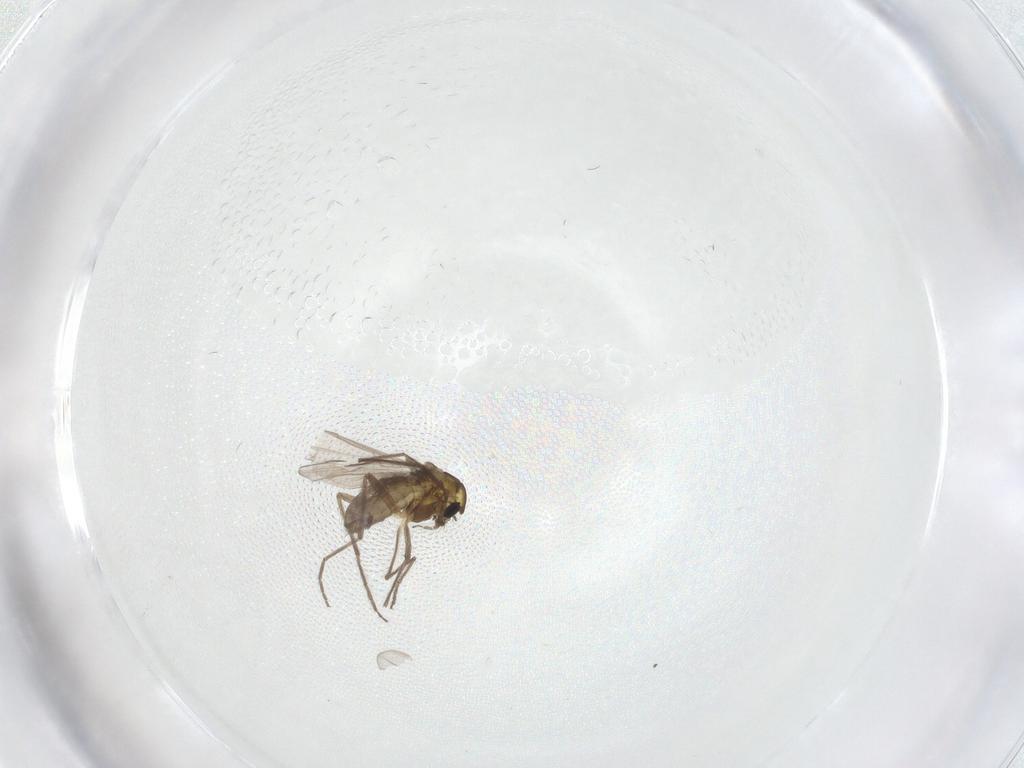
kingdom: Animalia
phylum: Arthropoda
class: Insecta
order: Diptera
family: Chironomidae
